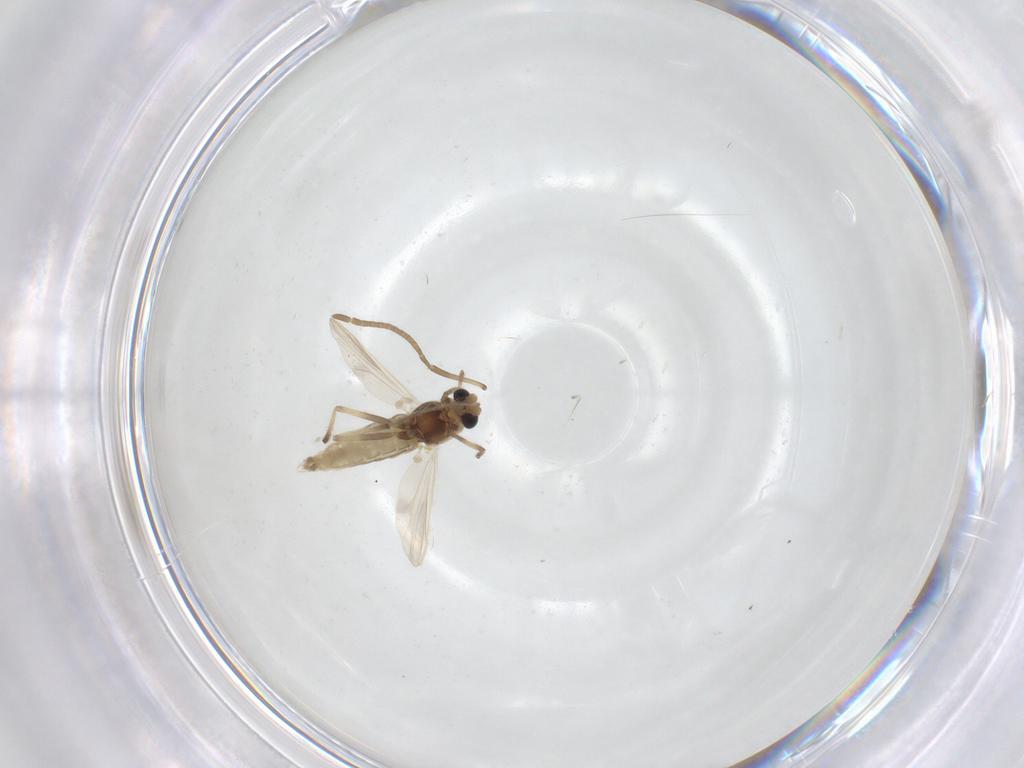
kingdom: Animalia
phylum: Arthropoda
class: Insecta
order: Diptera
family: Chironomidae
